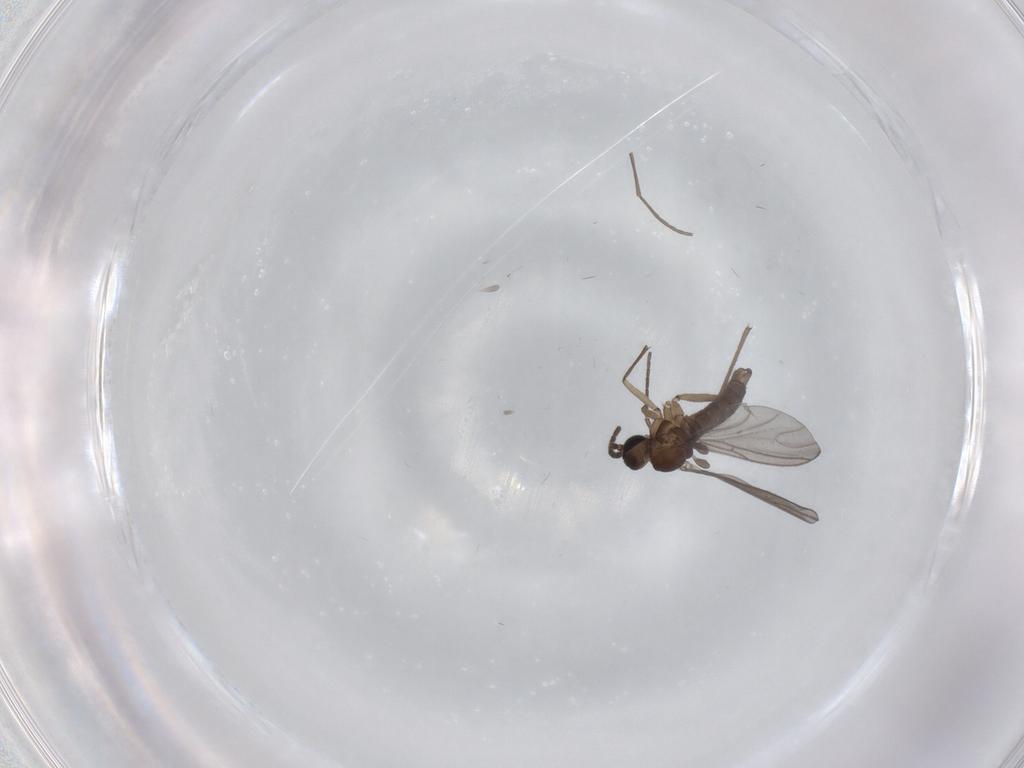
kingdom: Animalia
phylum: Arthropoda
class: Insecta
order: Diptera
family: Sciaridae
